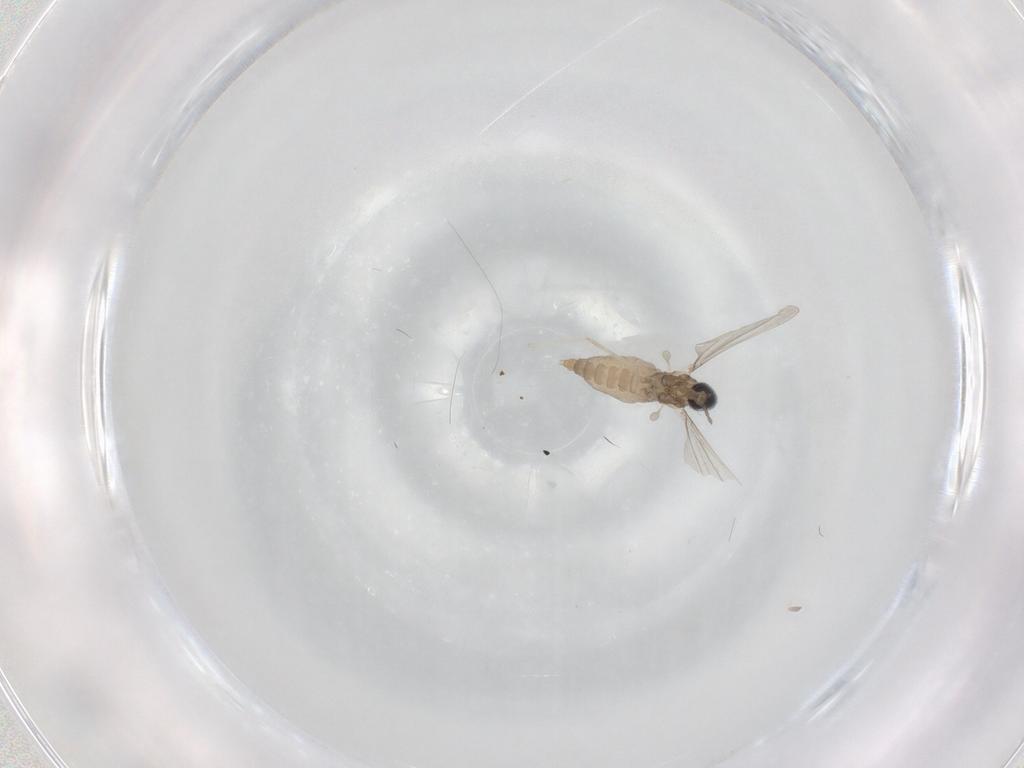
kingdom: Animalia
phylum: Arthropoda
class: Insecta
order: Diptera
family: Cecidomyiidae
